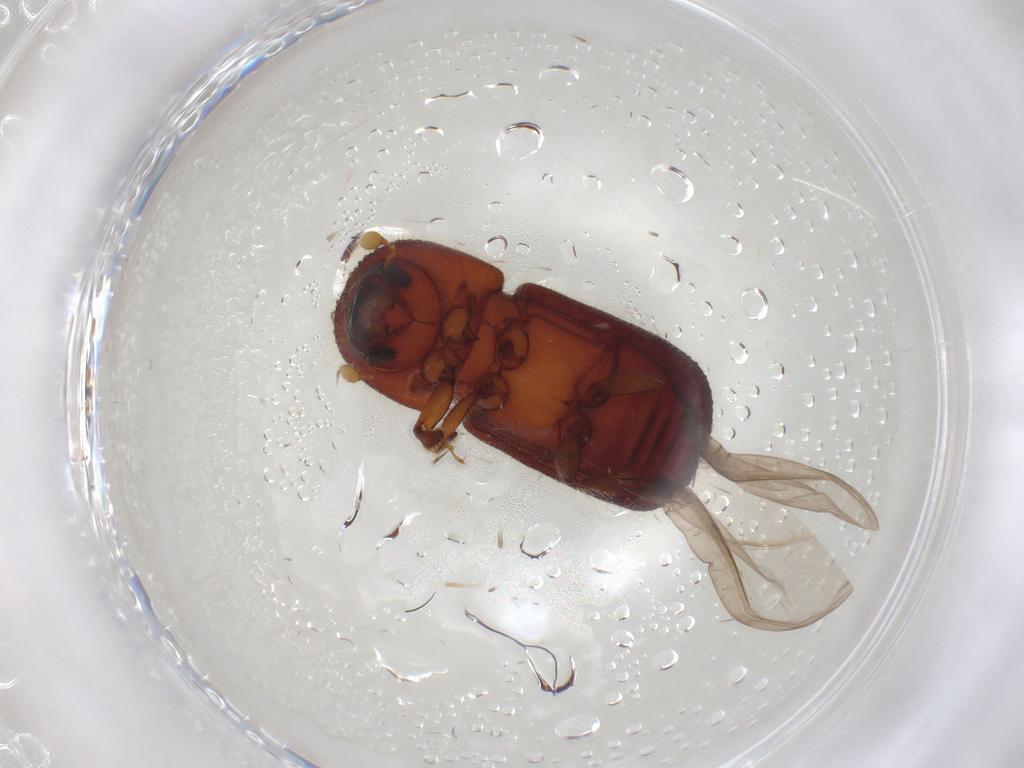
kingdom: Animalia
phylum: Arthropoda
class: Insecta
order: Coleoptera
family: Curculionidae
